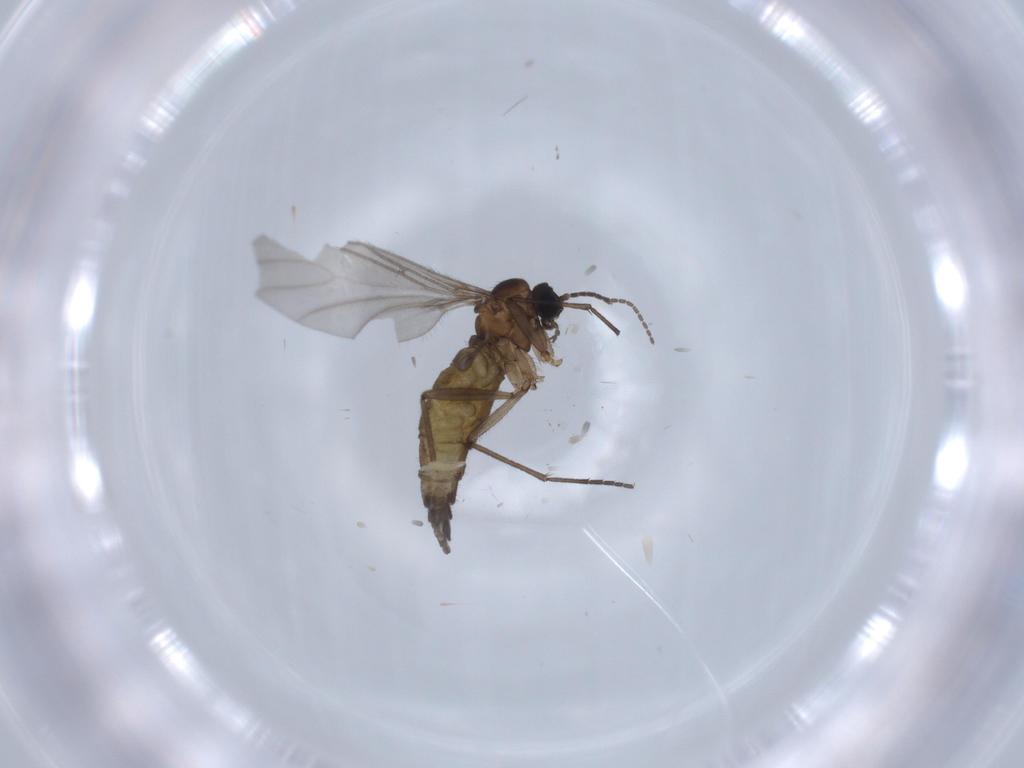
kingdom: Animalia
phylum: Arthropoda
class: Insecta
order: Diptera
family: Sciaridae
